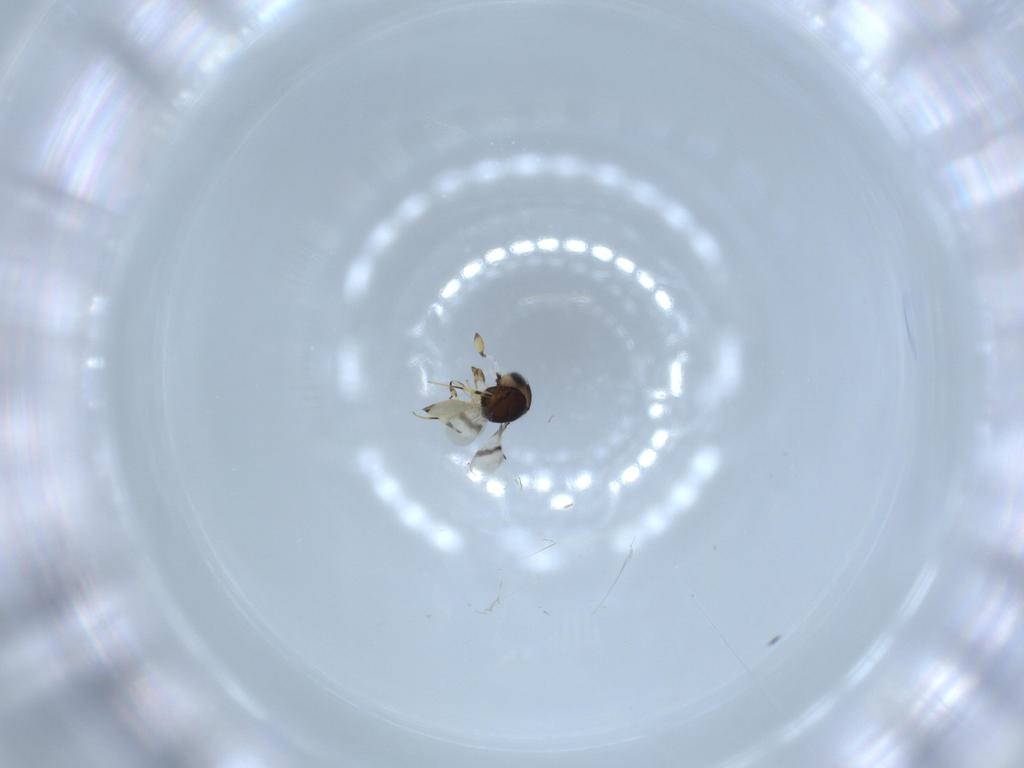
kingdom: Animalia
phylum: Arthropoda
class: Insecta
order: Hymenoptera
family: Scelionidae
